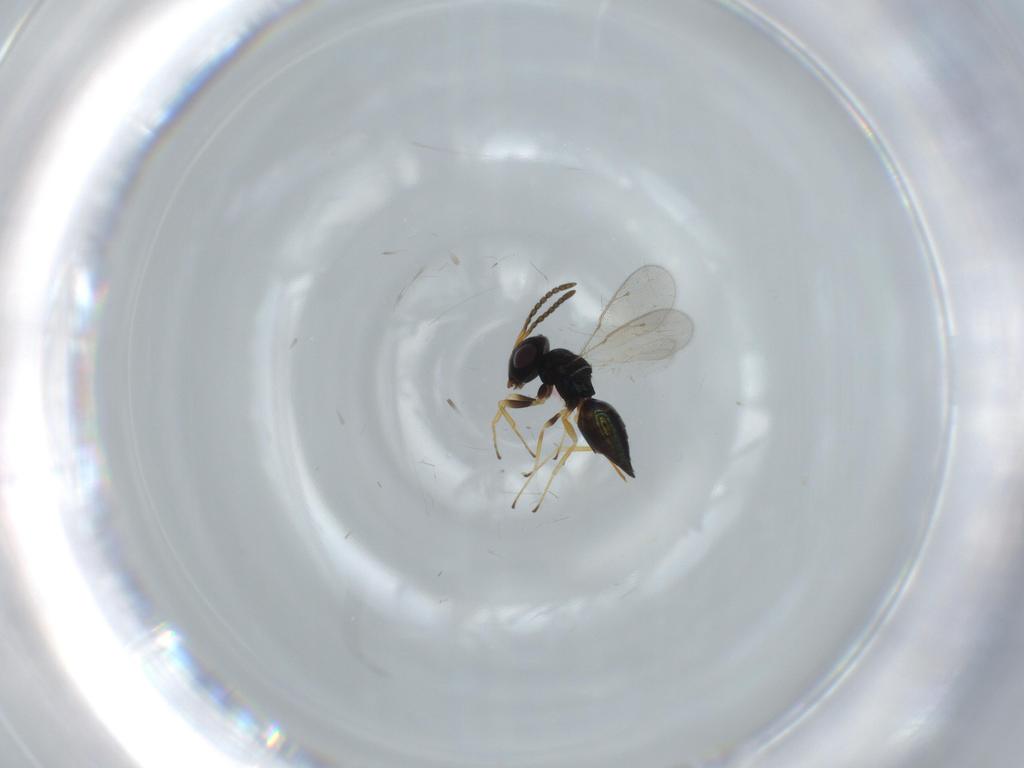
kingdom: Animalia
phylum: Arthropoda
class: Insecta
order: Hymenoptera
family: Pteromalidae
